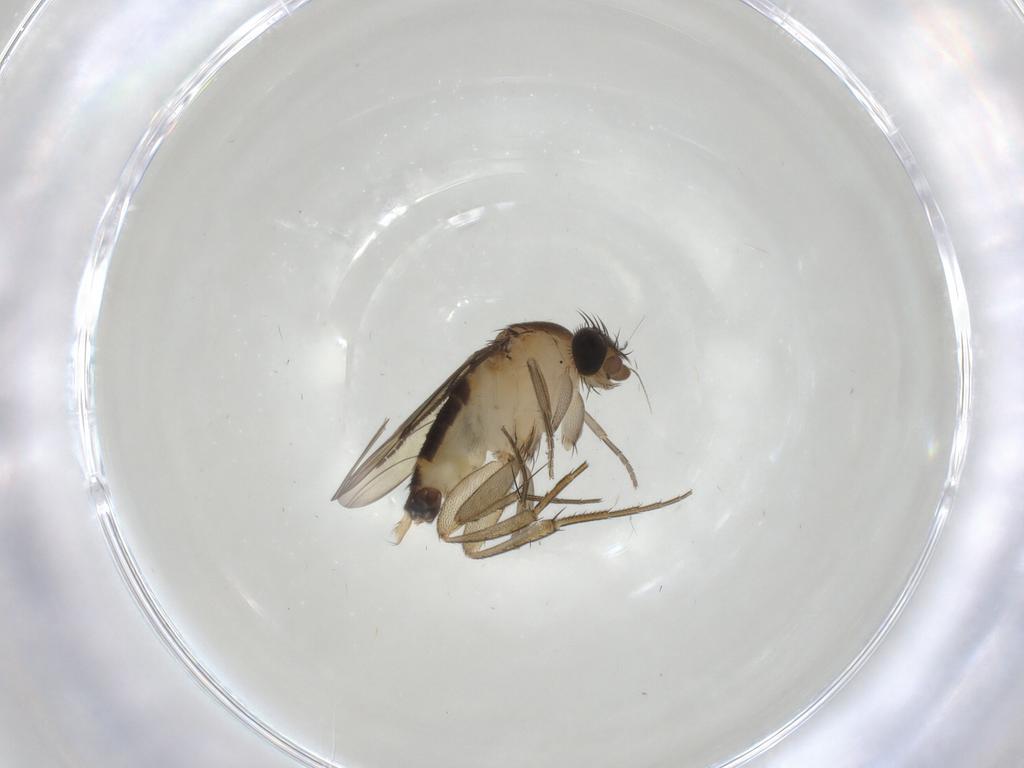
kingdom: Animalia
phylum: Arthropoda
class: Insecta
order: Diptera
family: Sciaridae
